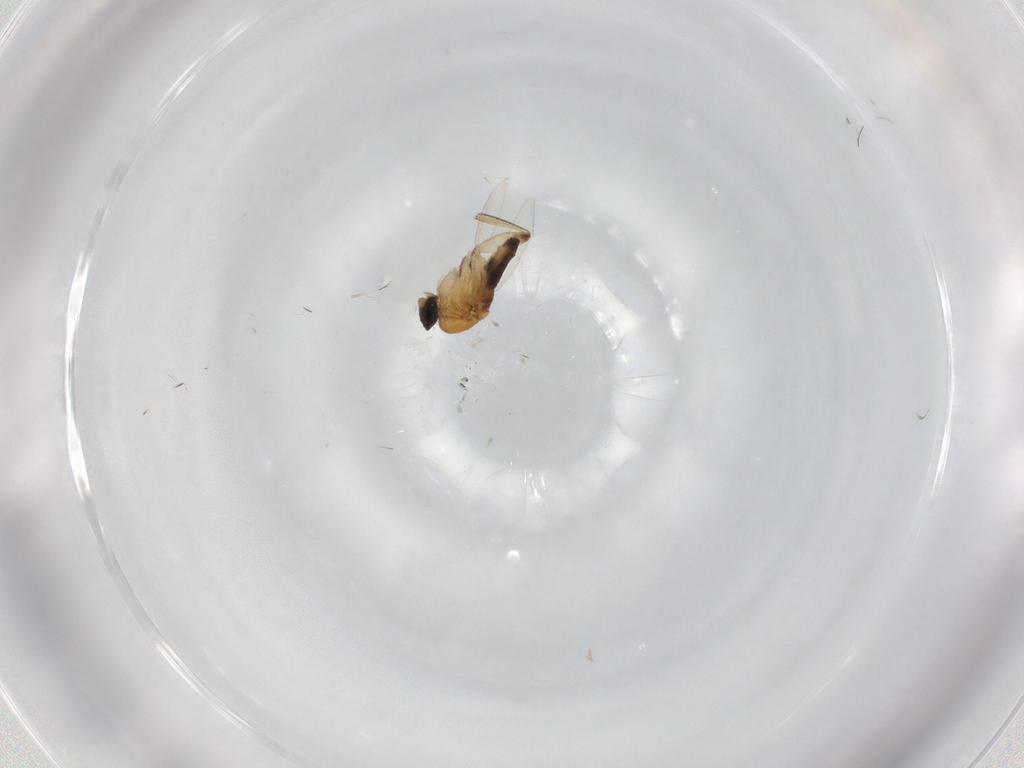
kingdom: Animalia
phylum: Arthropoda
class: Insecta
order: Diptera
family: Phoridae
